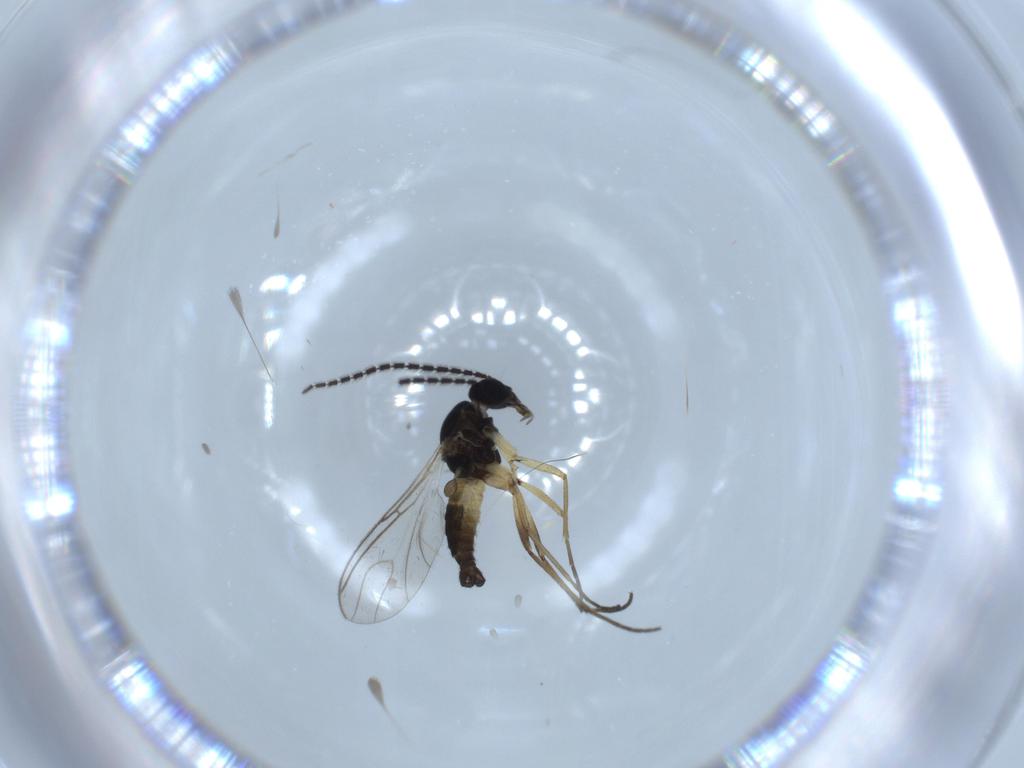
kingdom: Animalia
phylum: Arthropoda
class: Insecta
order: Diptera
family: Sciaridae
